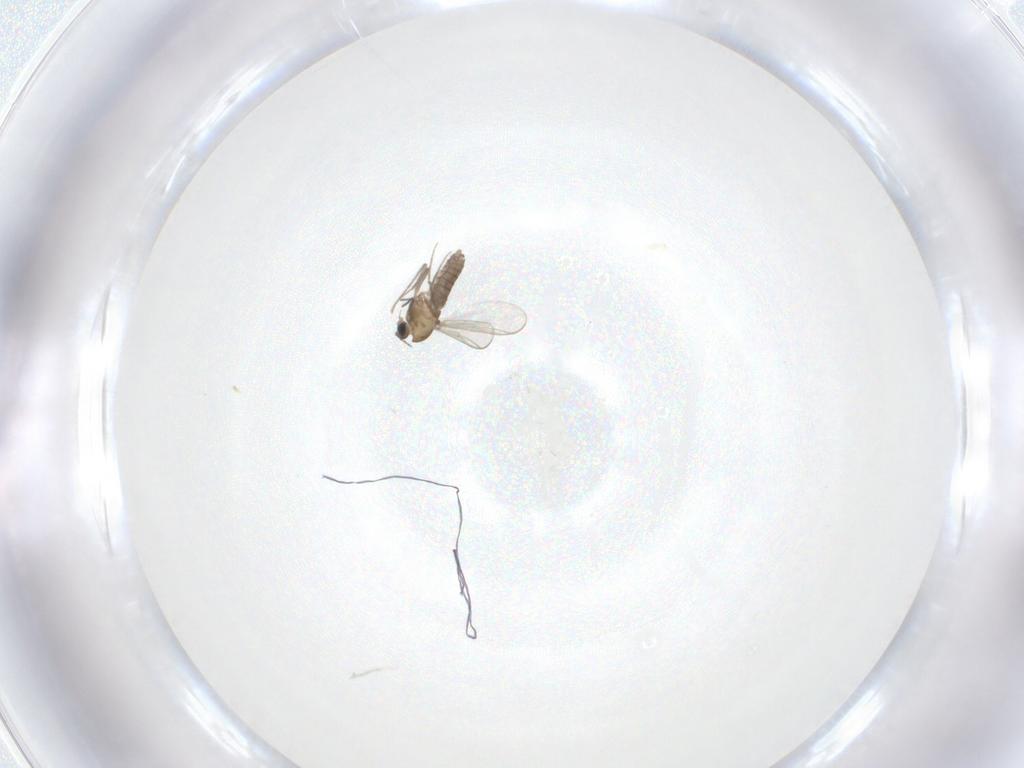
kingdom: Animalia
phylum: Arthropoda
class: Insecta
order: Diptera
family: Chironomidae
